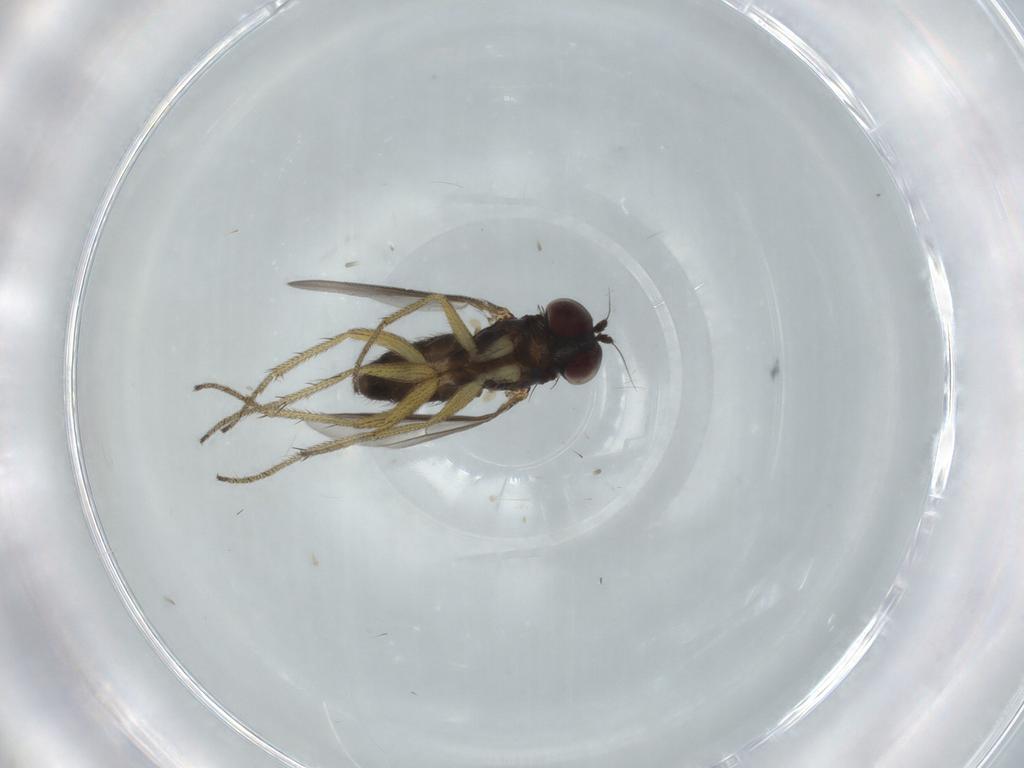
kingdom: Animalia
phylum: Arthropoda
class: Insecta
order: Diptera
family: Dolichopodidae
